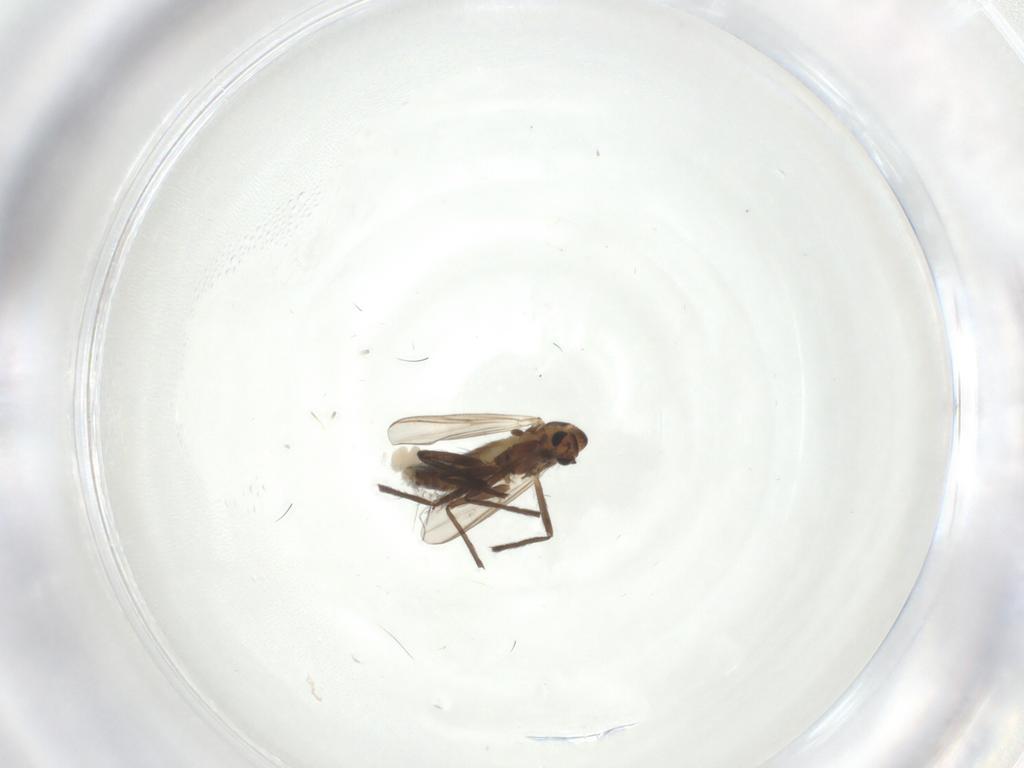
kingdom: Animalia
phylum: Arthropoda
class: Insecta
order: Diptera
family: Chironomidae
